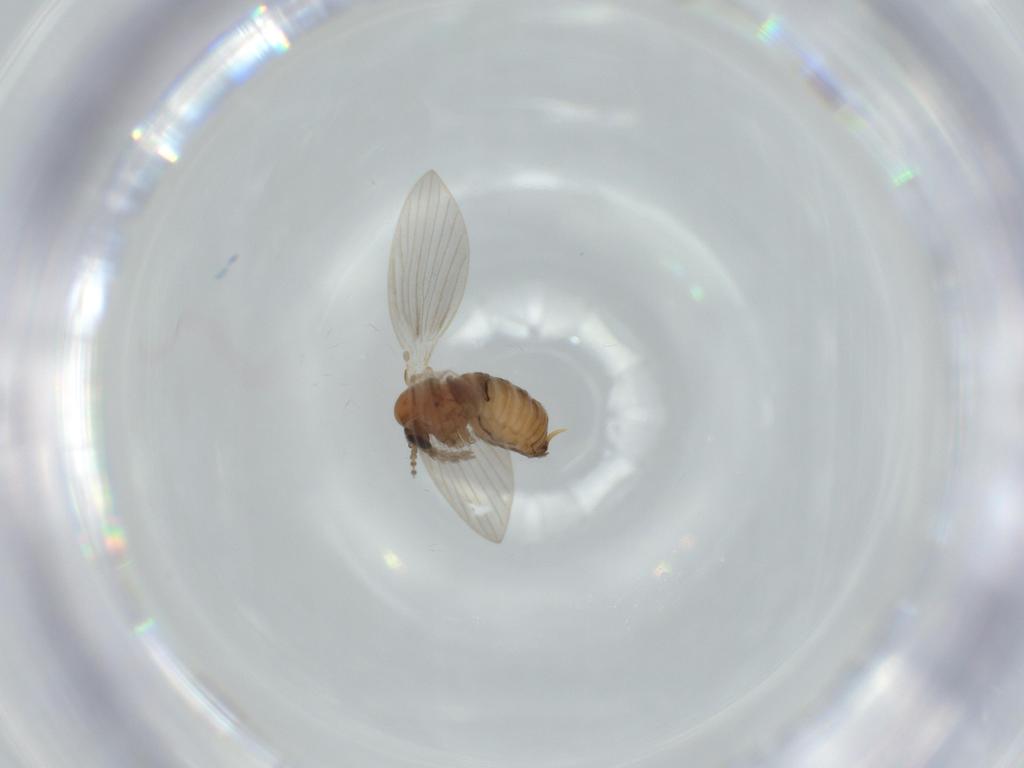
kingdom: Animalia
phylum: Arthropoda
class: Insecta
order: Diptera
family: Psychodidae
